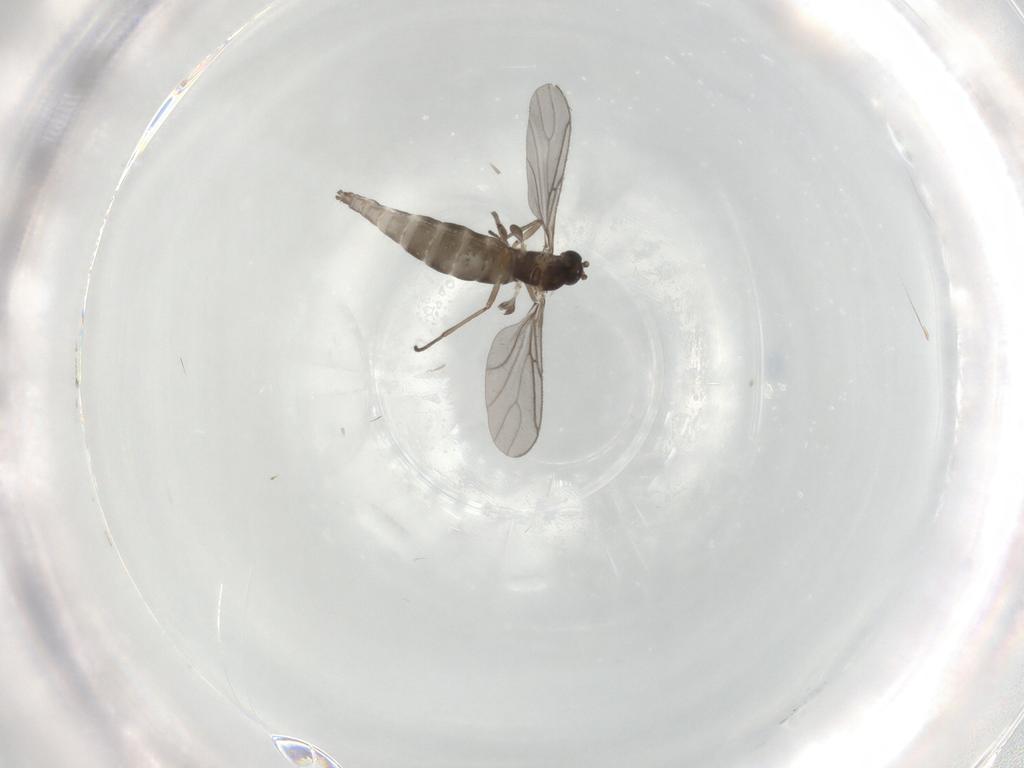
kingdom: Animalia
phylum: Arthropoda
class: Insecta
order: Diptera
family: Sciaridae
